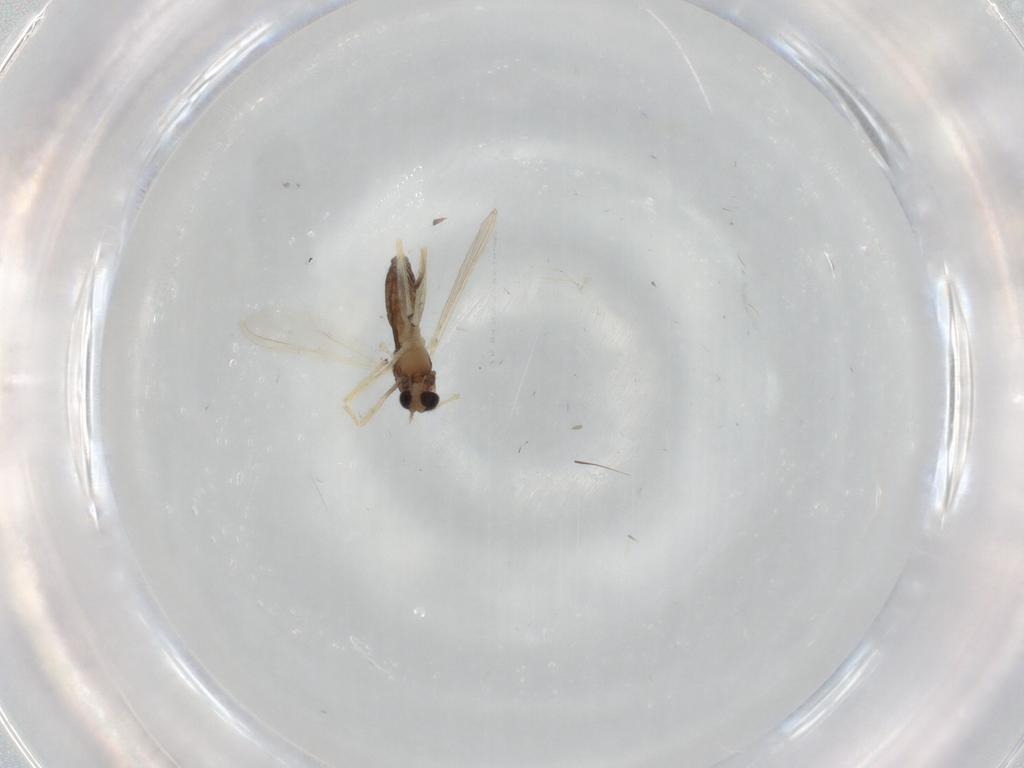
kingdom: Animalia
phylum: Arthropoda
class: Insecta
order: Diptera
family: Cecidomyiidae
